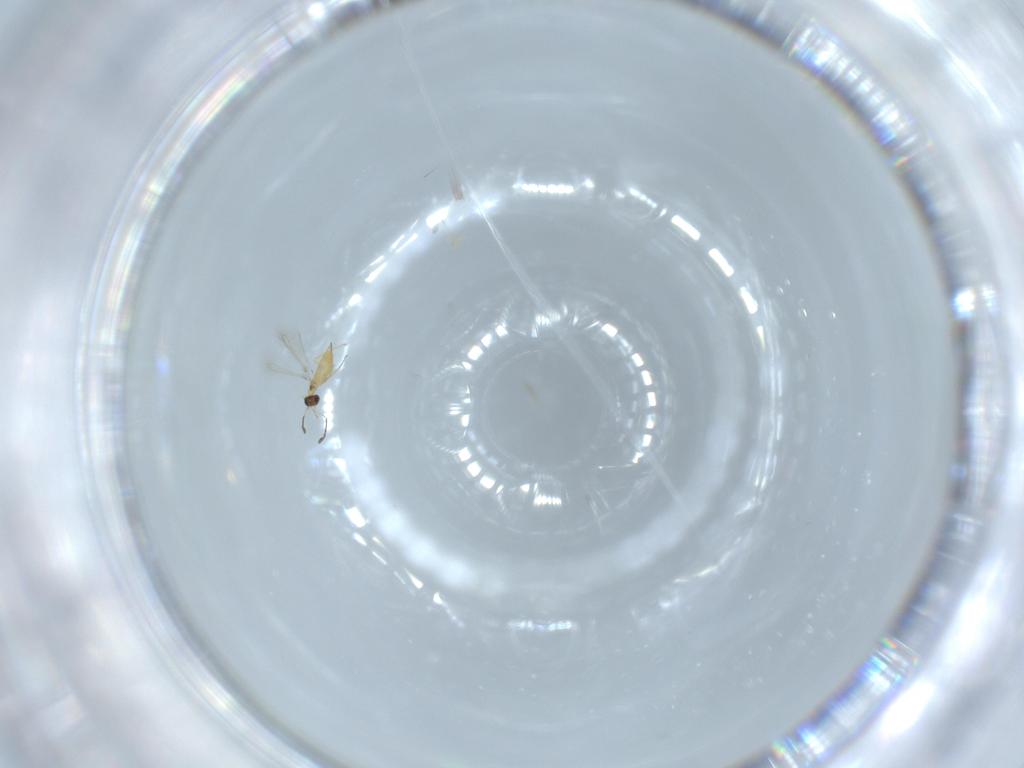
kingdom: Animalia
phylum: Arthropoda
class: Insecta
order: Hymenoptera
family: Mymaridae
